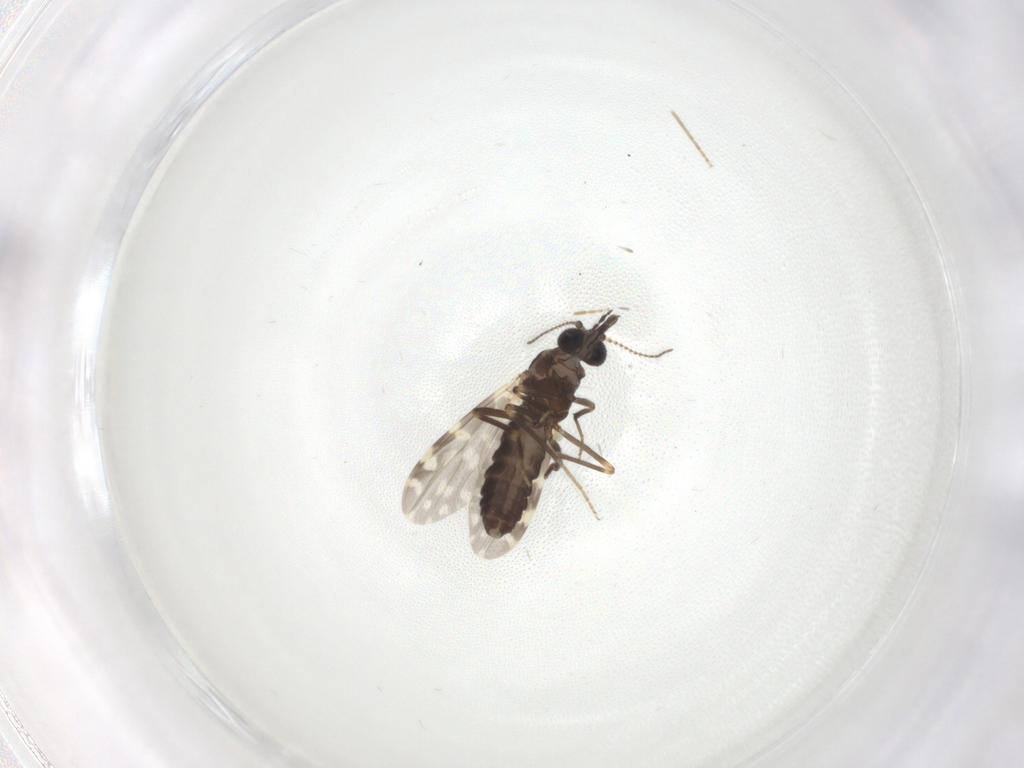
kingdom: Animalia
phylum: Arthropoda
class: Insecta
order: Diptera
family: Ceratopogonidae
